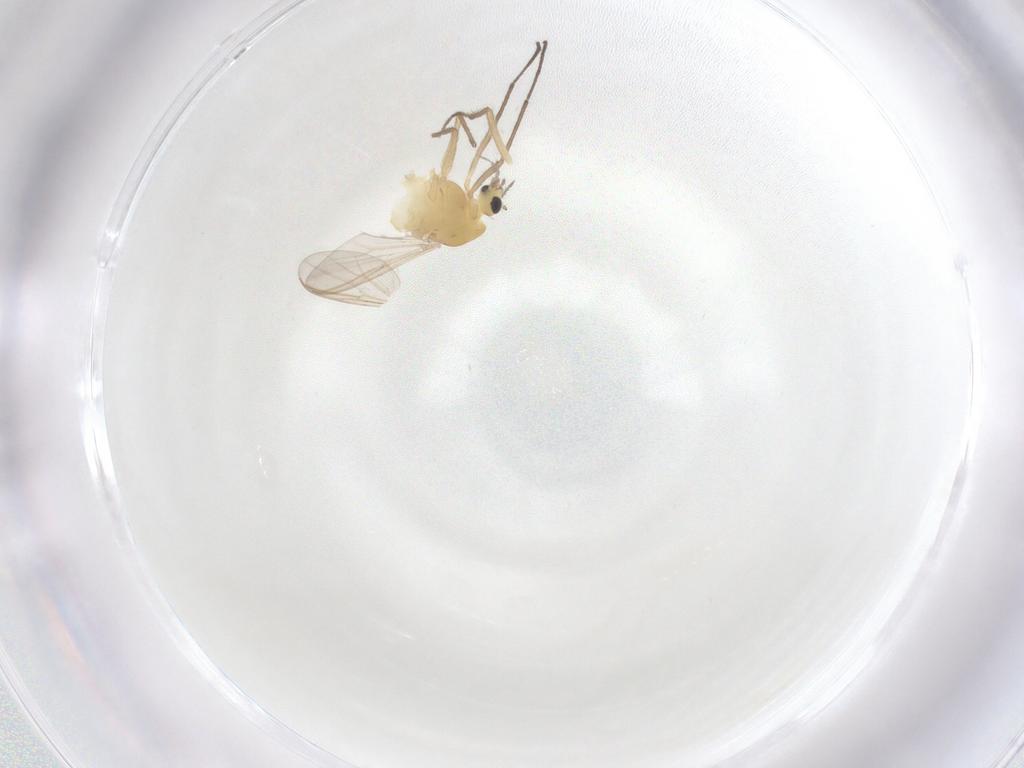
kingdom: Animalia
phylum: Arthropoda
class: Insecta
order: Diptera
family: Chironomidae
